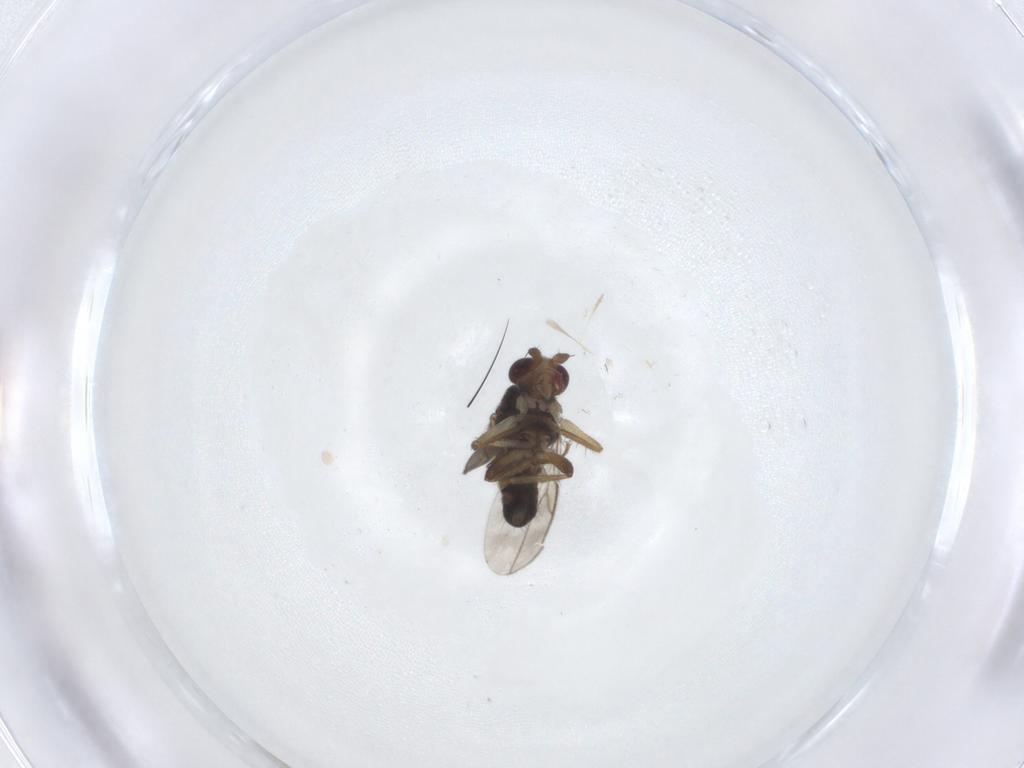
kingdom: Animalia
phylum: Arthropoda
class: Insecta
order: Diptera
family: Sphaeroceridae
